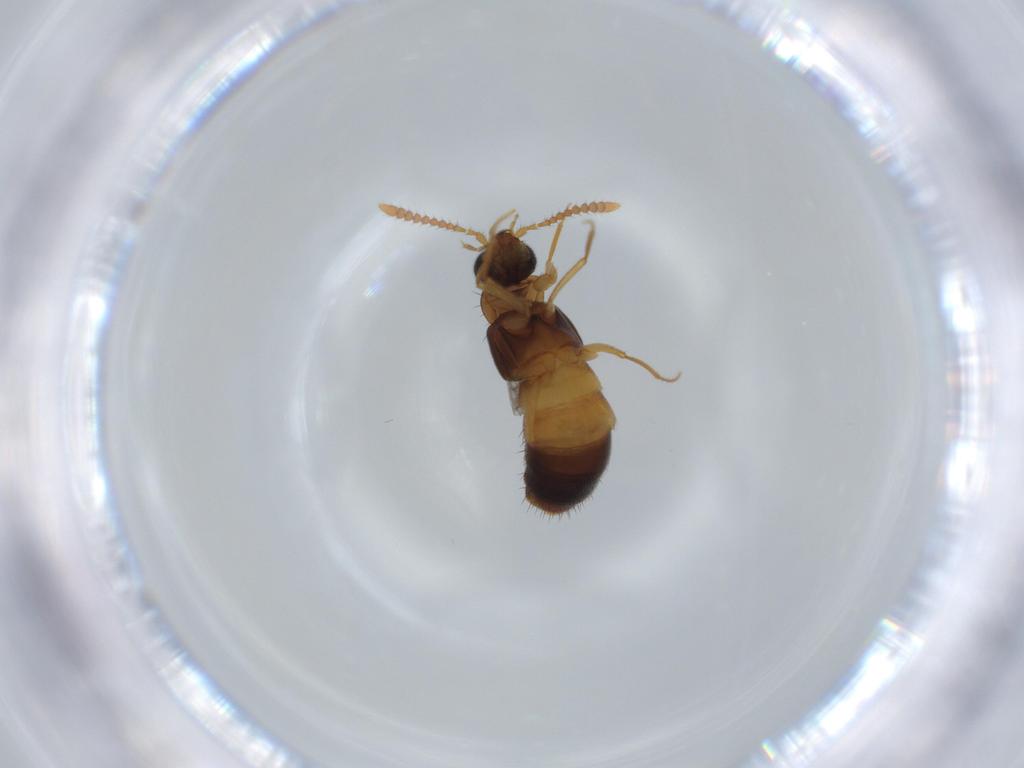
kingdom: Animalia
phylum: Arthropoda
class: Insecta
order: Coleoptera
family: Staphylinidae
